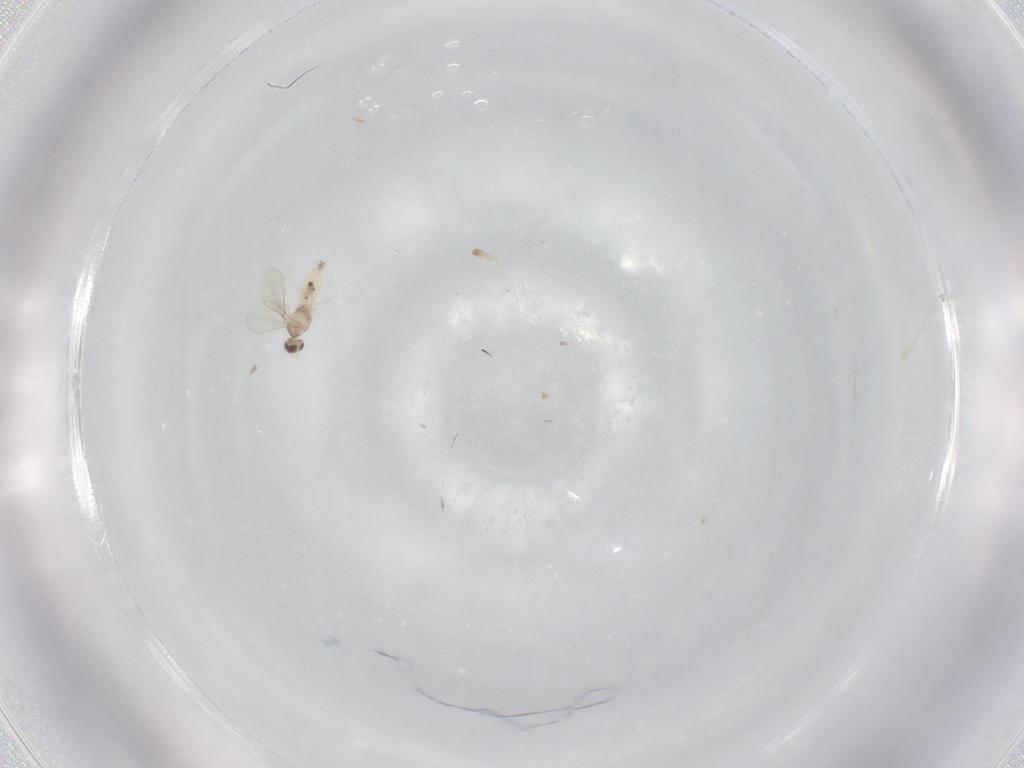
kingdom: Animalia
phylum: Arthropoda
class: Insecta
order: Diptera
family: Cecidomyiidae
